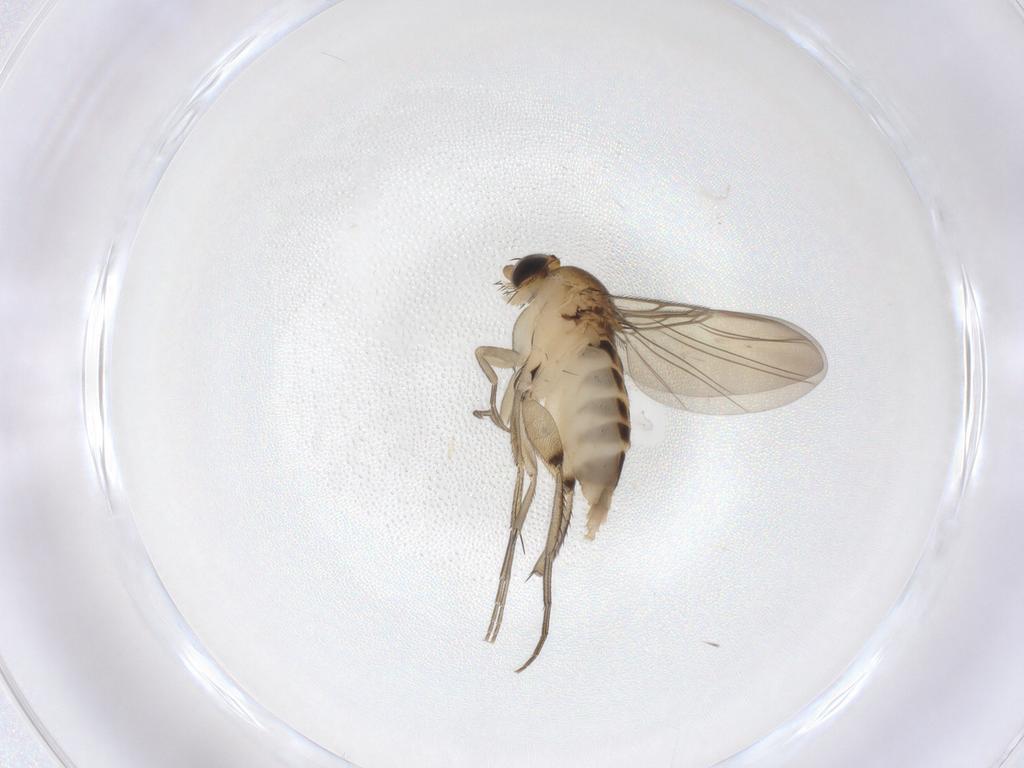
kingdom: Animalia
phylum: Arthropoda
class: Insecta
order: Diptera
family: Phoridae
